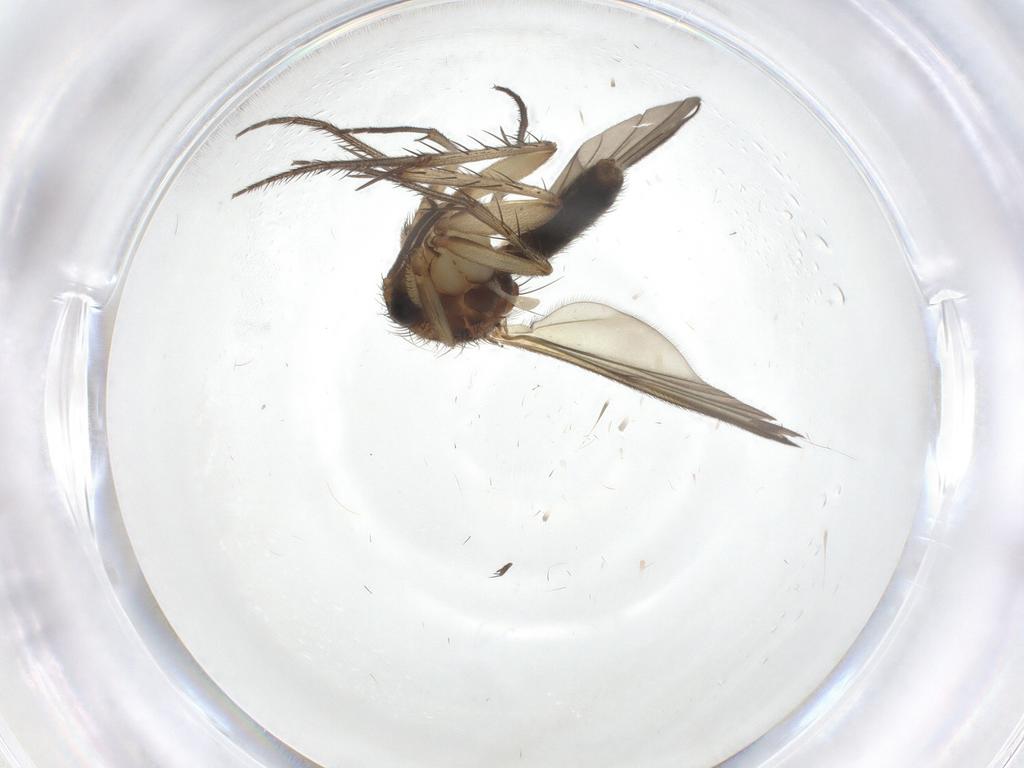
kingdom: Animalia
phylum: Arthropoda
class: Insecta
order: Diptera
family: Mycetophilidae
